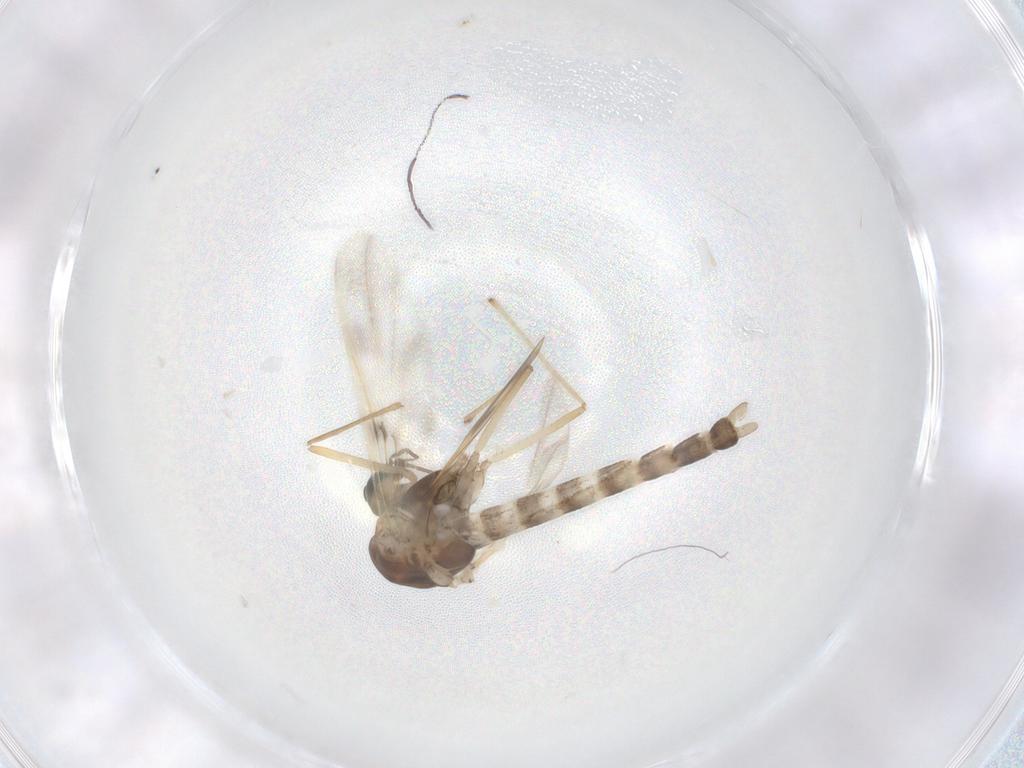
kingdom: Animalia
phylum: Arthropoda
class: Insecta
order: Diptera
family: Chironomidae
